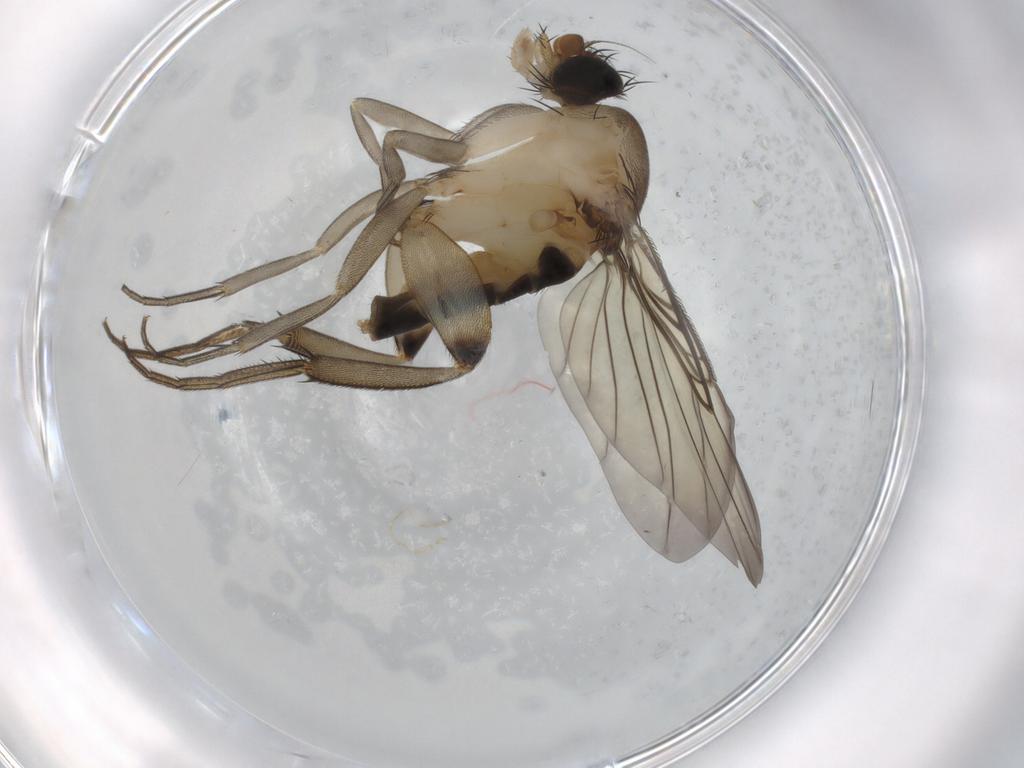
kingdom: Animalia
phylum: Arthropoda
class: Insecta
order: Diptera
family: Phoridae
